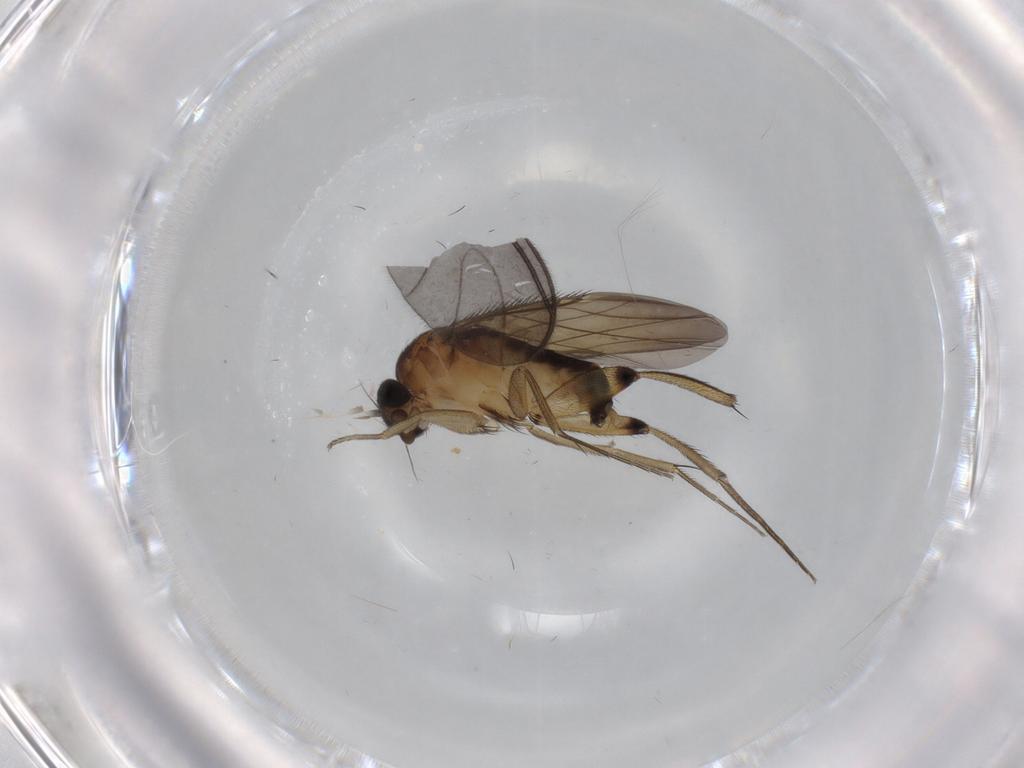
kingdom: Animalia
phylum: Arthropoda
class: Insecta
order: Diptera
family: Phoridae
